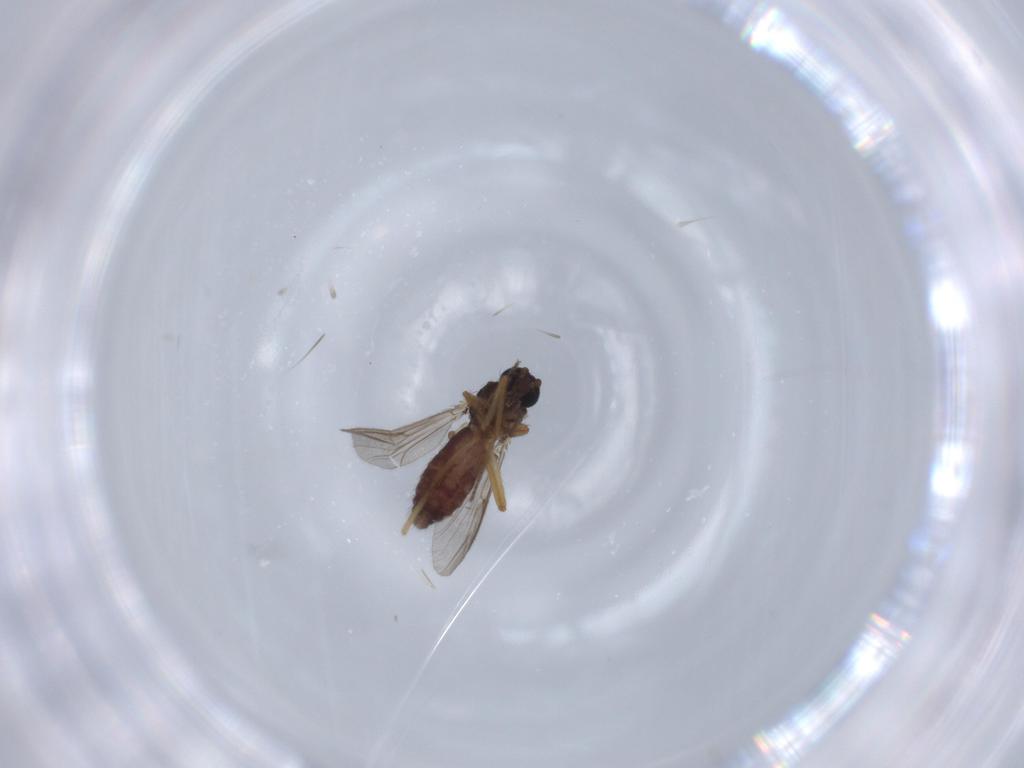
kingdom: Animalia
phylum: Arthropoda
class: Insecta
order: Diptera
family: Ceratopogonidae
